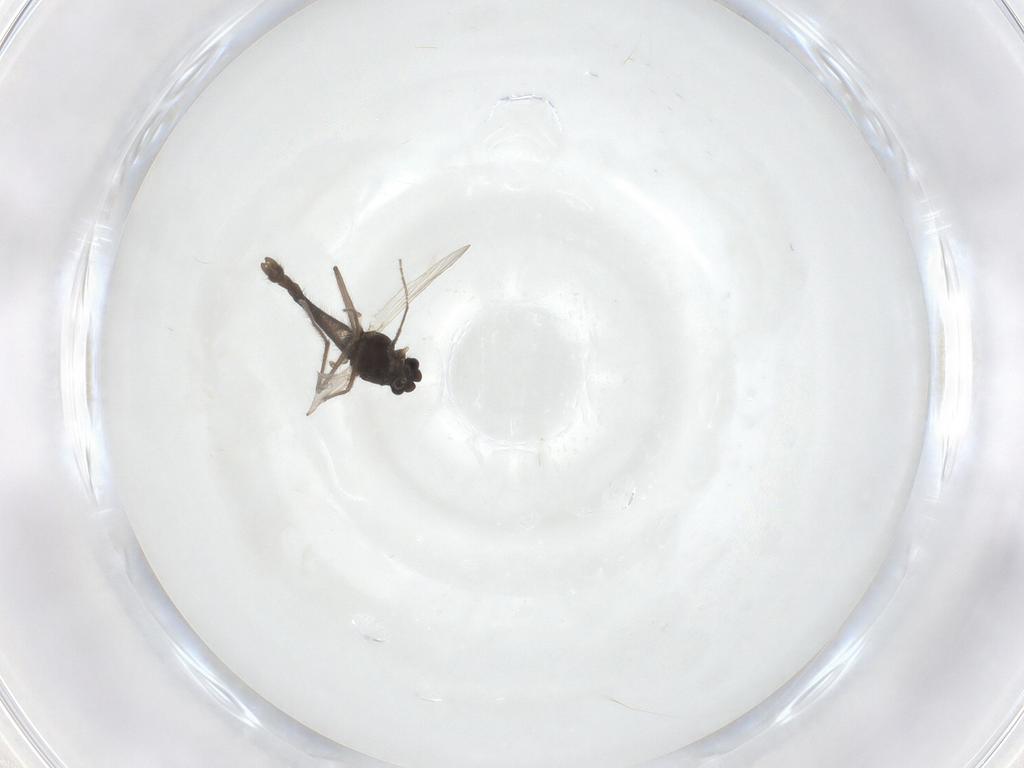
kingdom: Animalia
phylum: Arthropoda
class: Insecta
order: Diptera
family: Chironomidae
